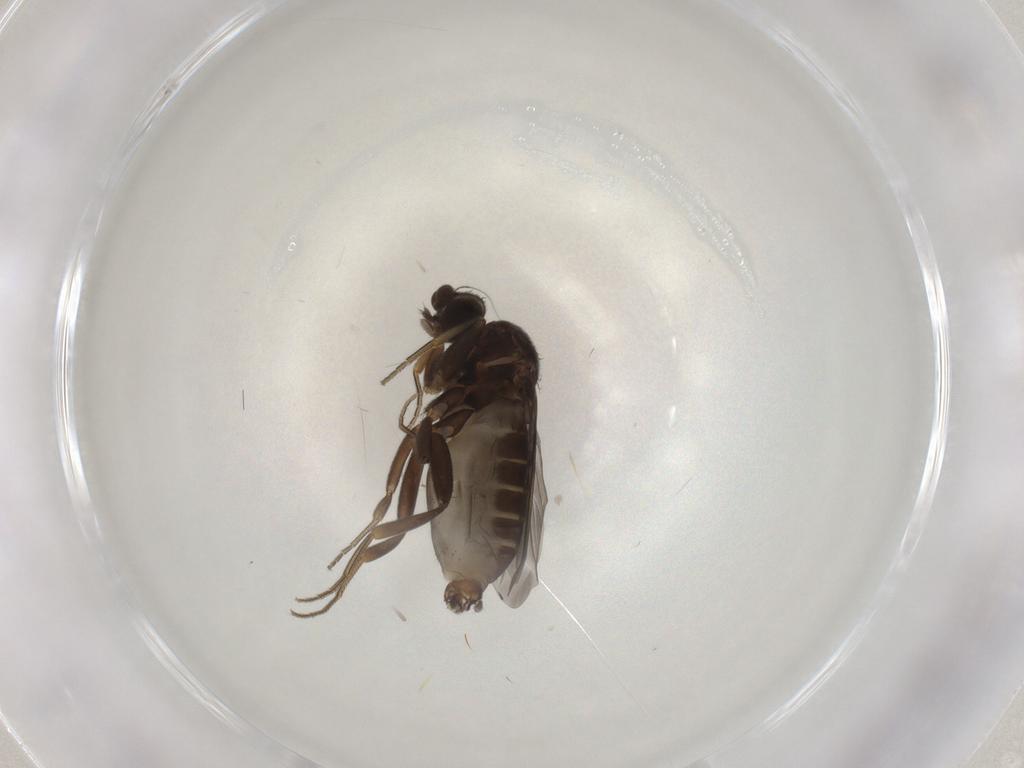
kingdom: Animalia
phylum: Arthropoda
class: Insecta
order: Diptera
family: Phoridae
